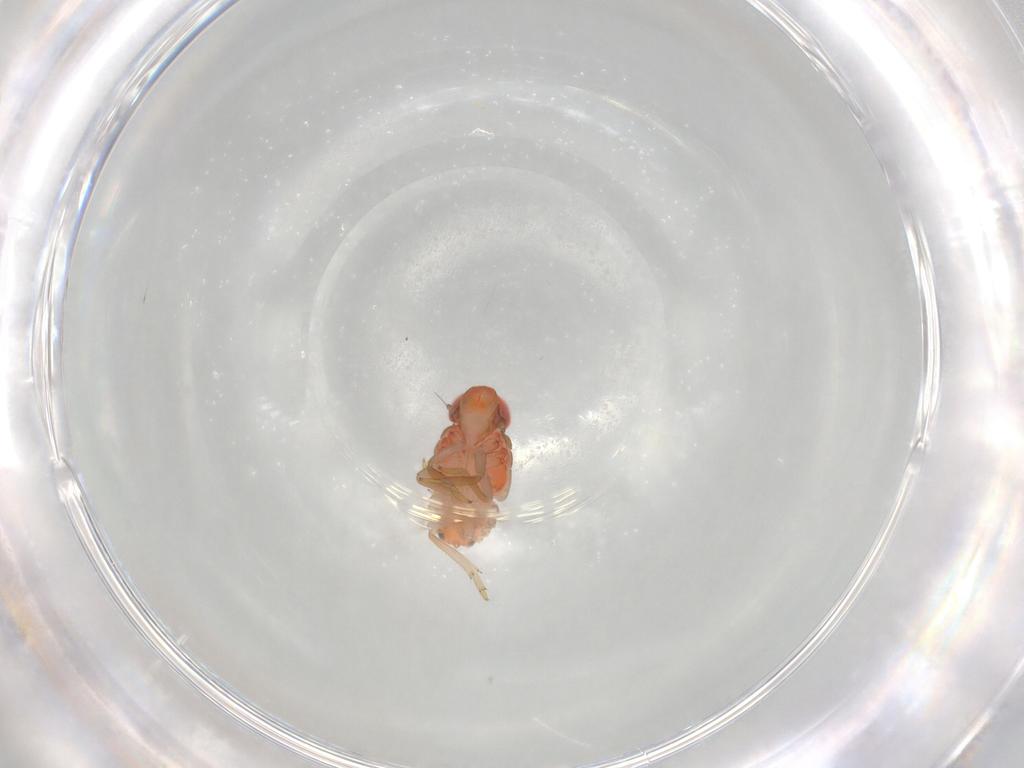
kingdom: Animalia
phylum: Arthropoda
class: Insecta
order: Hemiptera
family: Issidae
